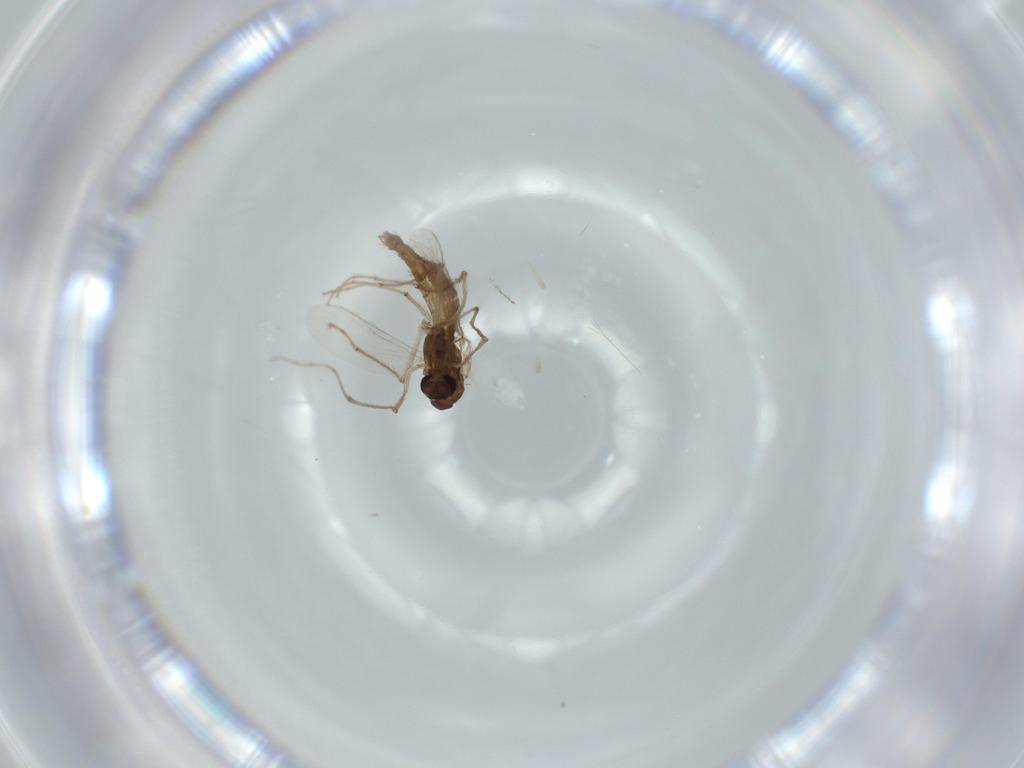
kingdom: Animalia
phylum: Arthropoda
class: Insecta
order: Diptera
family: Chironomidae
